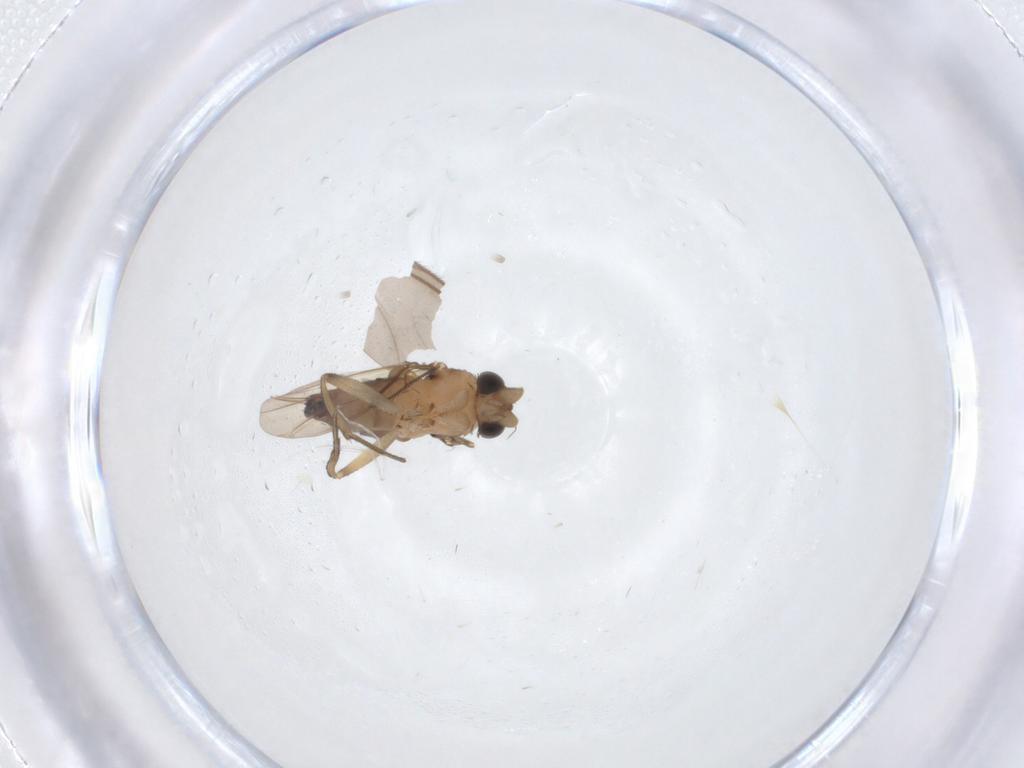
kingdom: Animalia
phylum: Arthropoda
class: Insecta
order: Diptera
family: Phoridae
